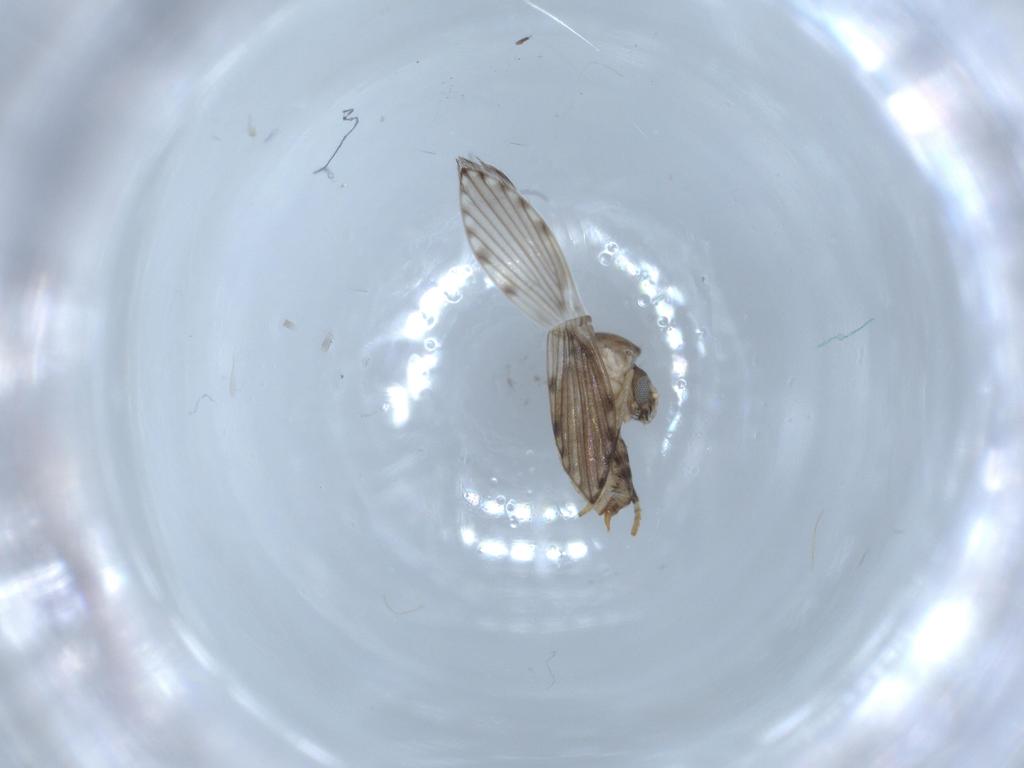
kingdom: Animalia
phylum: Arthropoda
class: Insecta
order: Diptera
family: Psychodidae
